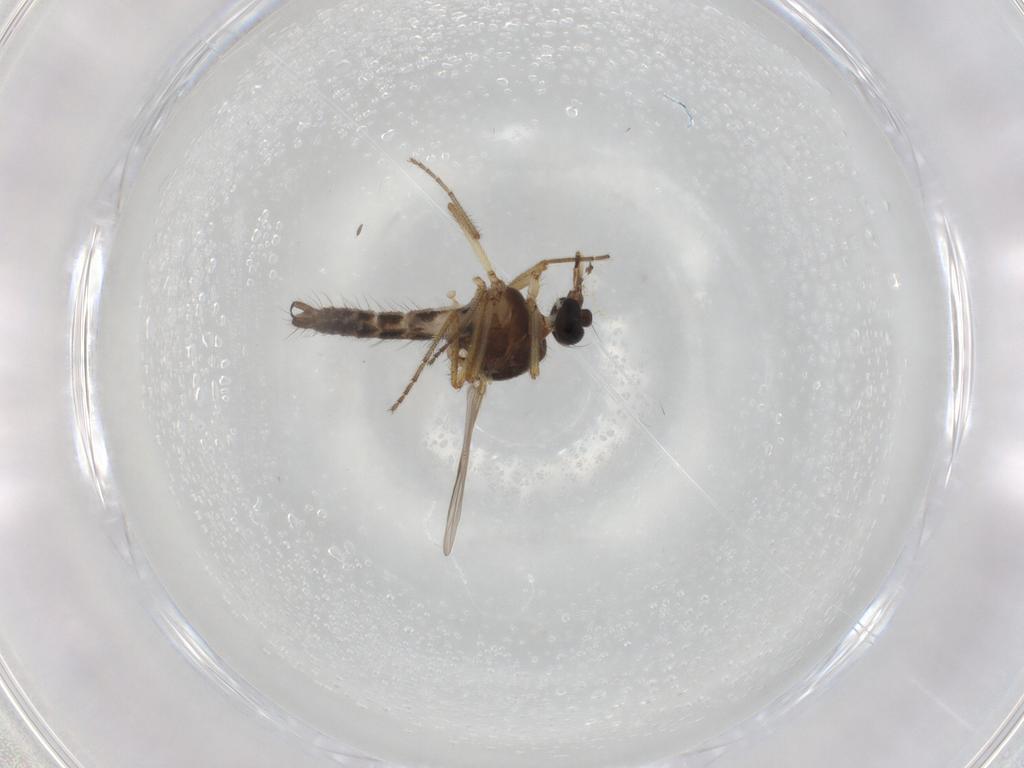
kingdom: Animalia
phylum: Arthropoda
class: Insecta
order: Diptera
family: Ceratopogonidae
